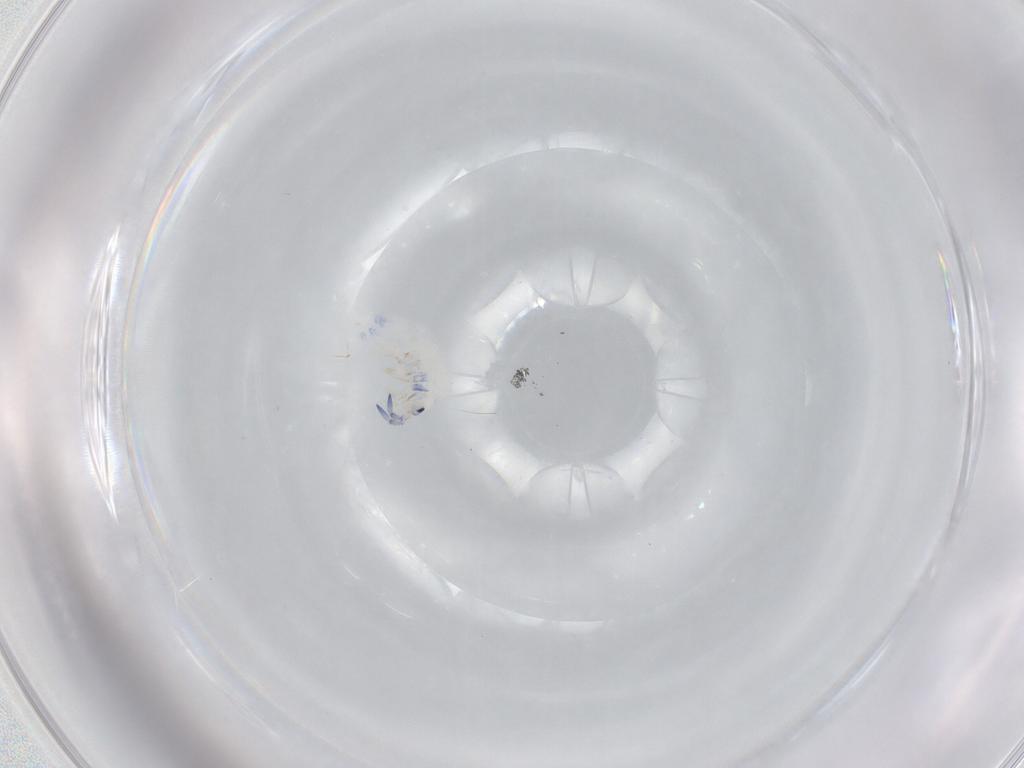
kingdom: Animalia
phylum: Arthropoda
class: Collembola
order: Entomobryomorpha
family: Entomobryidae
